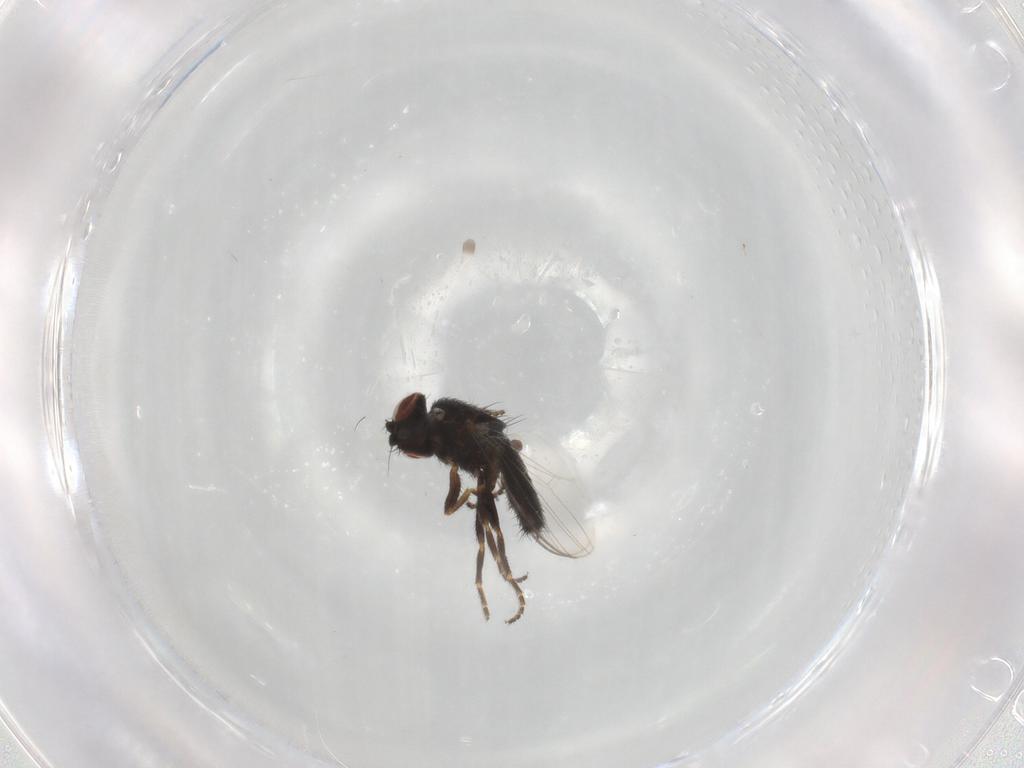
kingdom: Animalia
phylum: Arthropoda
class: Insecta
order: Diptera
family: Milichiidae
